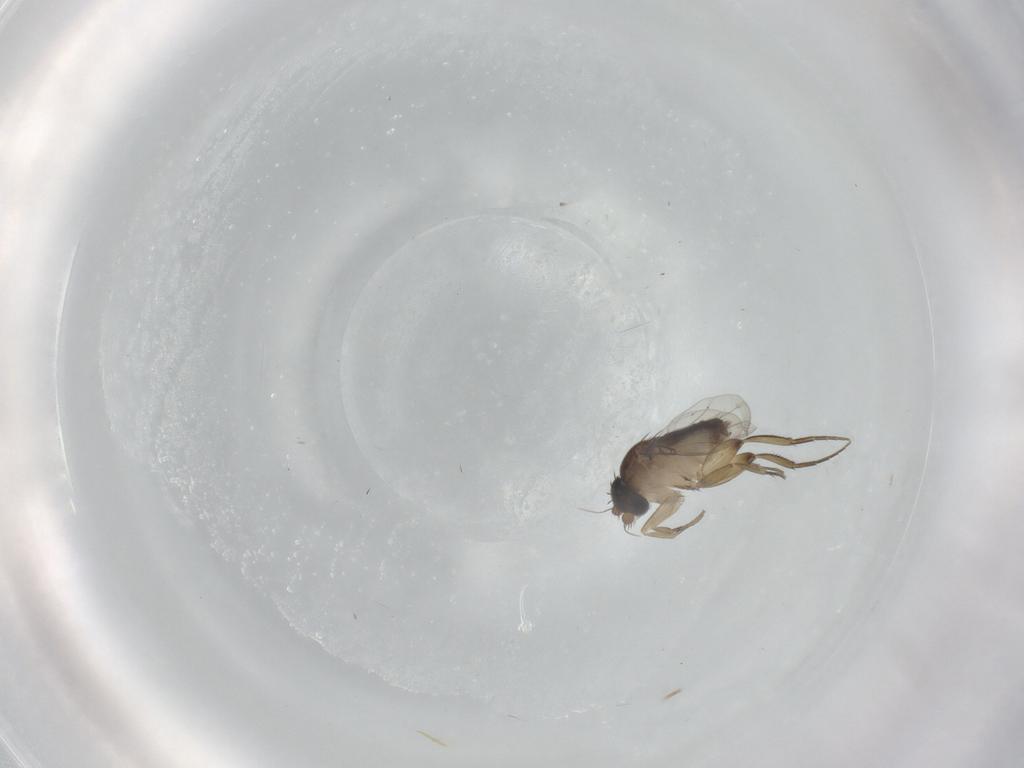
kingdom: Animalia
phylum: Arthropoda
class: Insecta
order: Diptera
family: Phoridae
